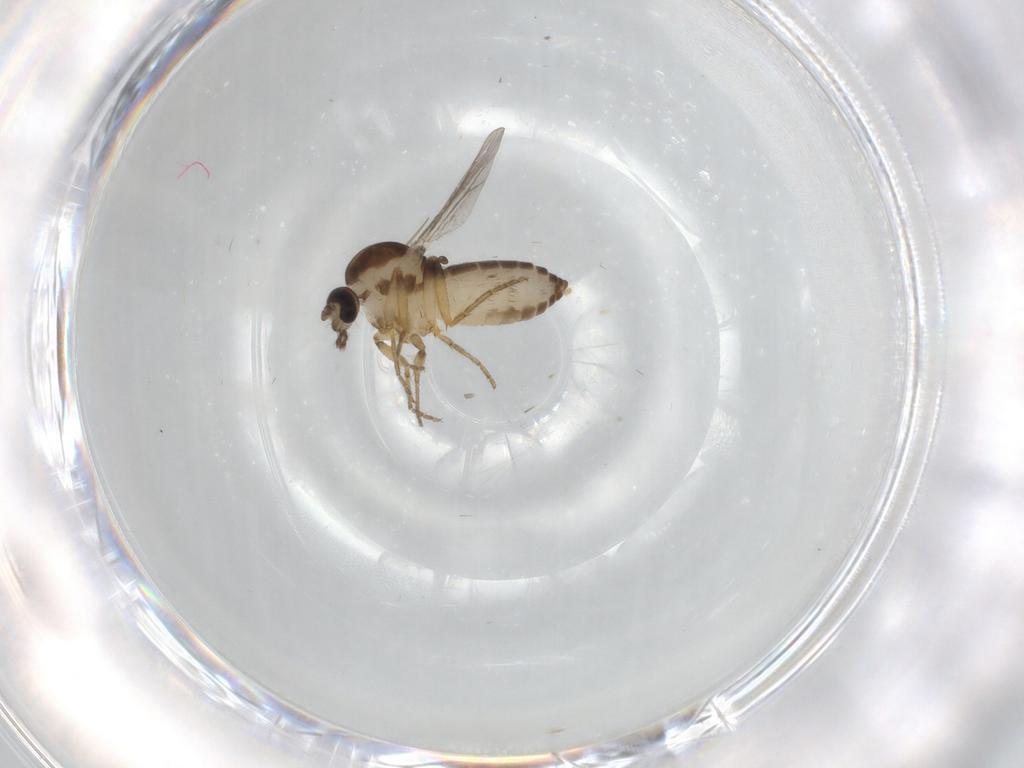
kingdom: Animalia
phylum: Arthropoda
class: Insecta
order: Diptera
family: Ceratopogonidae
